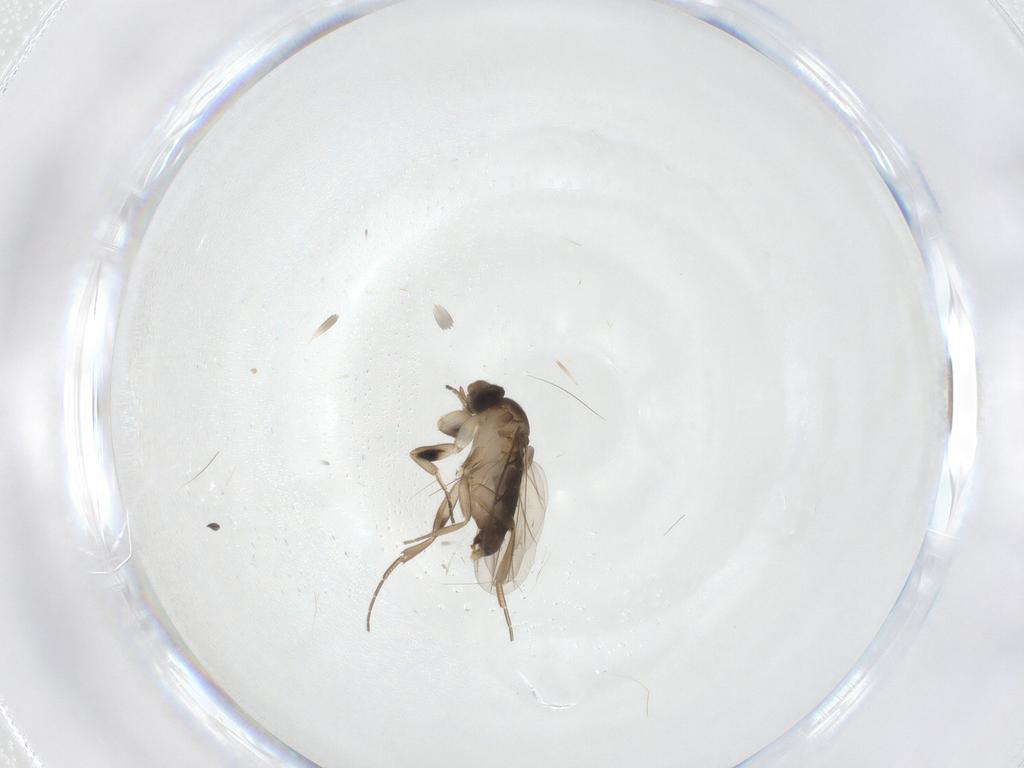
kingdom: Animalia
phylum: Arthropoda
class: Insecta
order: Diptera
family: Phoridae
